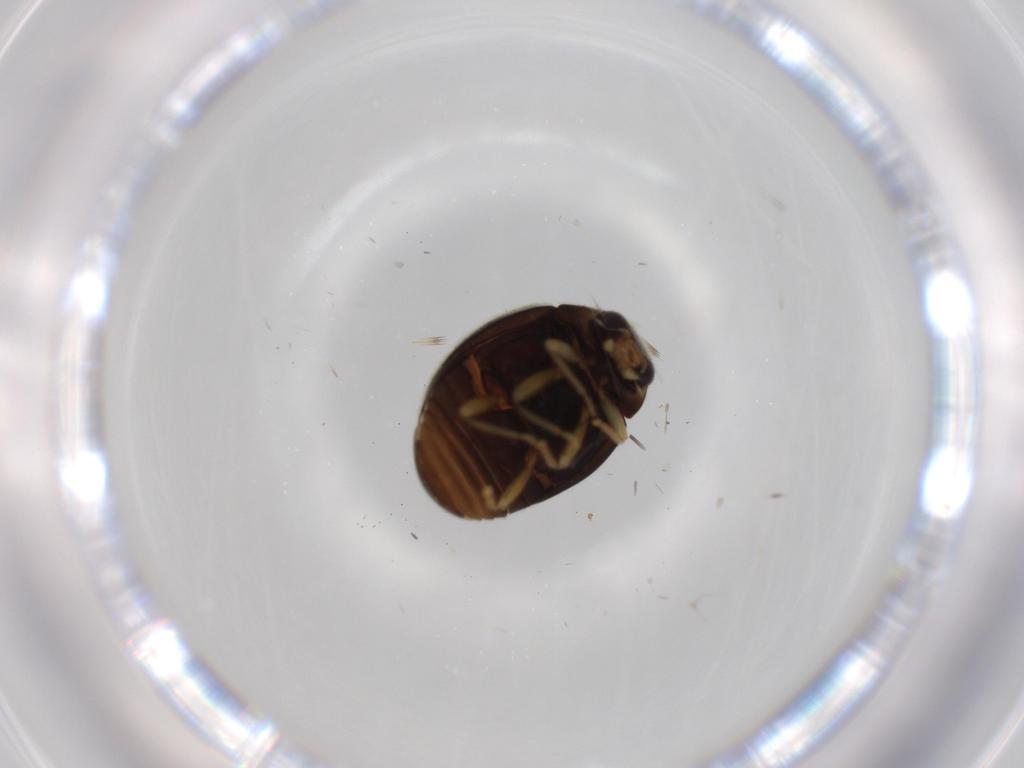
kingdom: Animalia
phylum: Arthropoda
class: Insecta
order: Coleoptera
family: Coccinellidae
